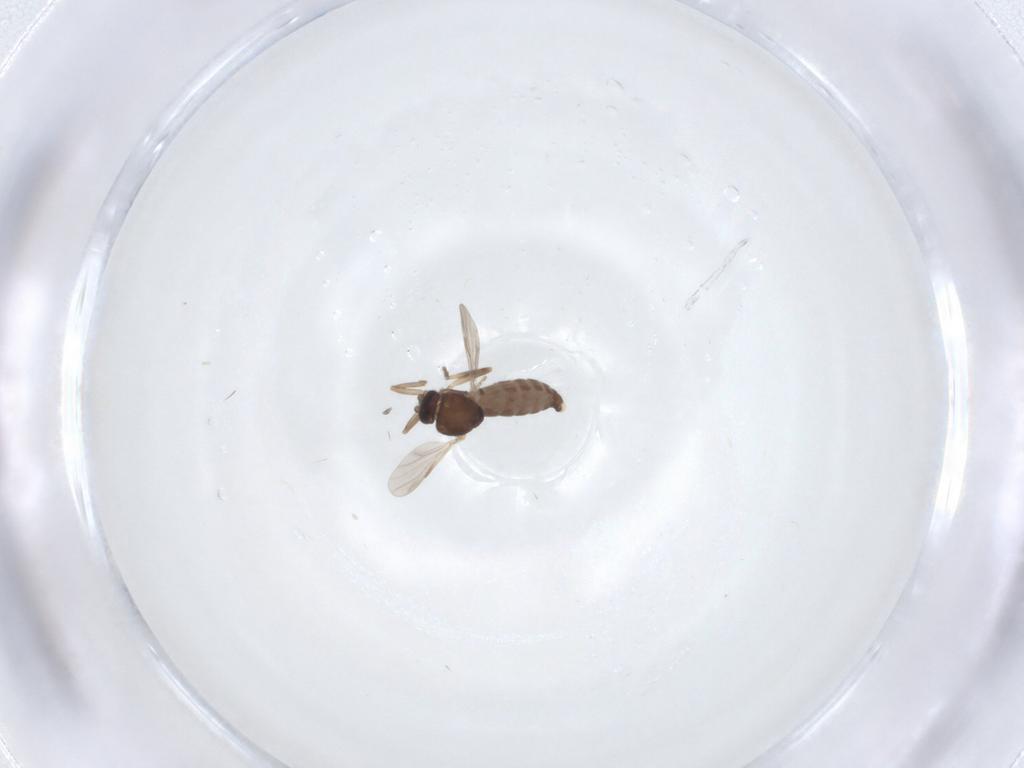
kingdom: Animalia
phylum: Arthropoda
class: Insecta
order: Diptera
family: Ceratopogonidae
